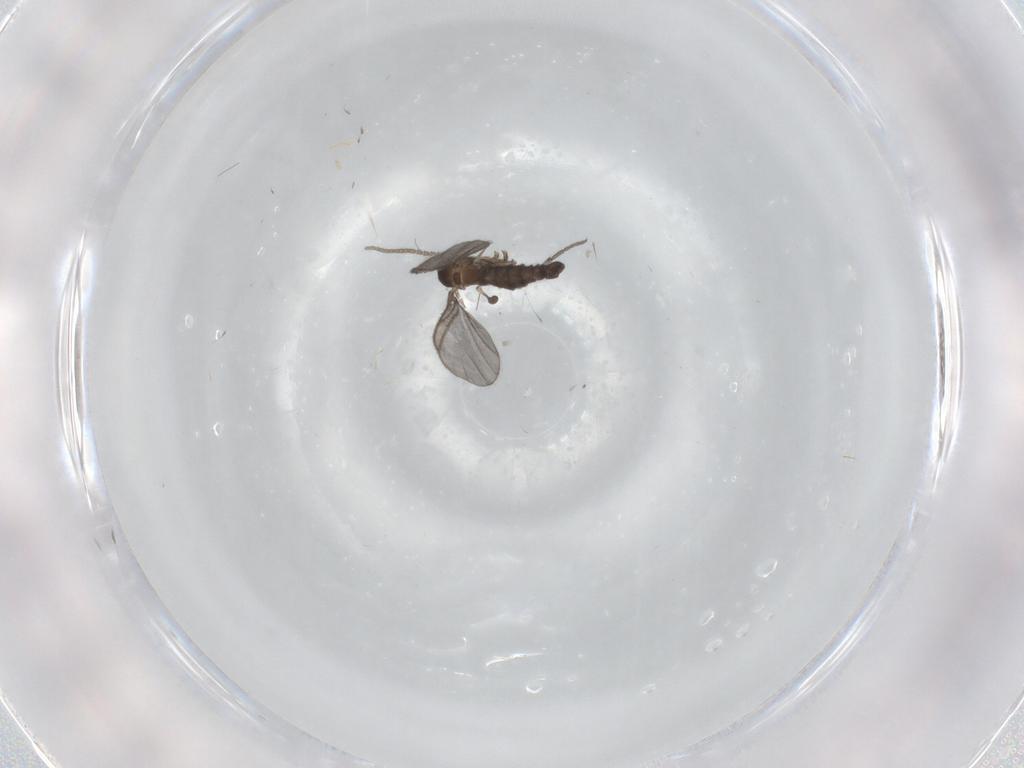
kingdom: Animalia
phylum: Arthropoda
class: Insecta
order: Diptera
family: Sciaridae
